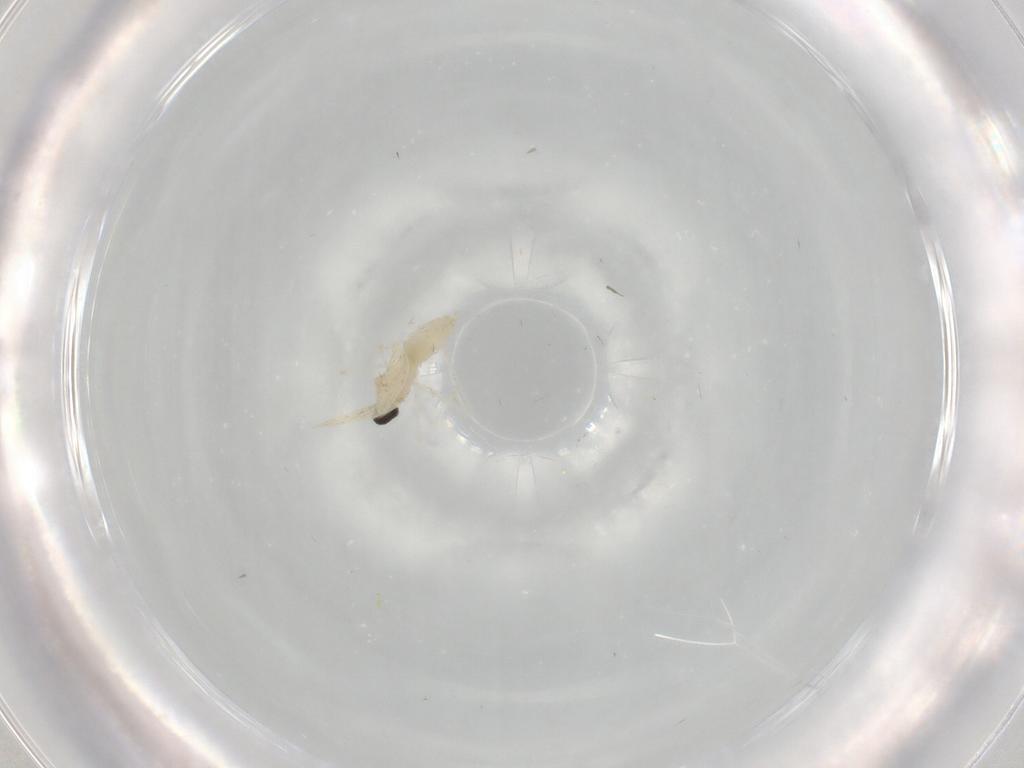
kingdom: Animalia
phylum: Arthropoda
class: Insecta
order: Diptera
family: Cecidomyiidae
